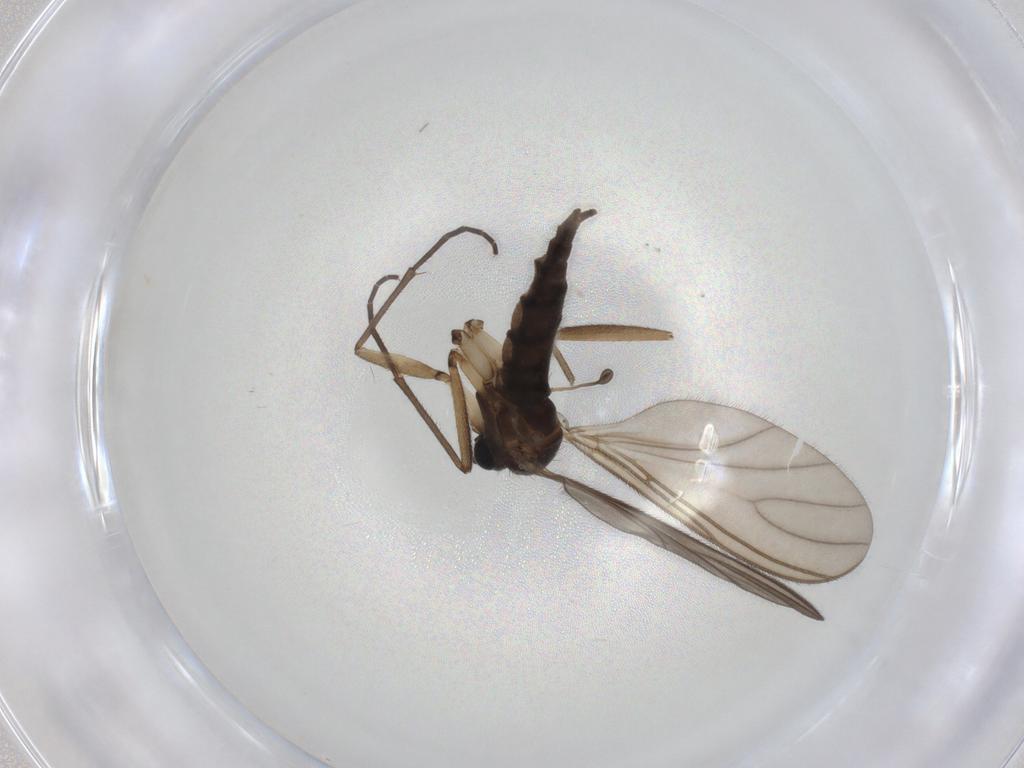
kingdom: Animalia
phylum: Arthropoda
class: Insecta
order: Diptera
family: Sciaridae
